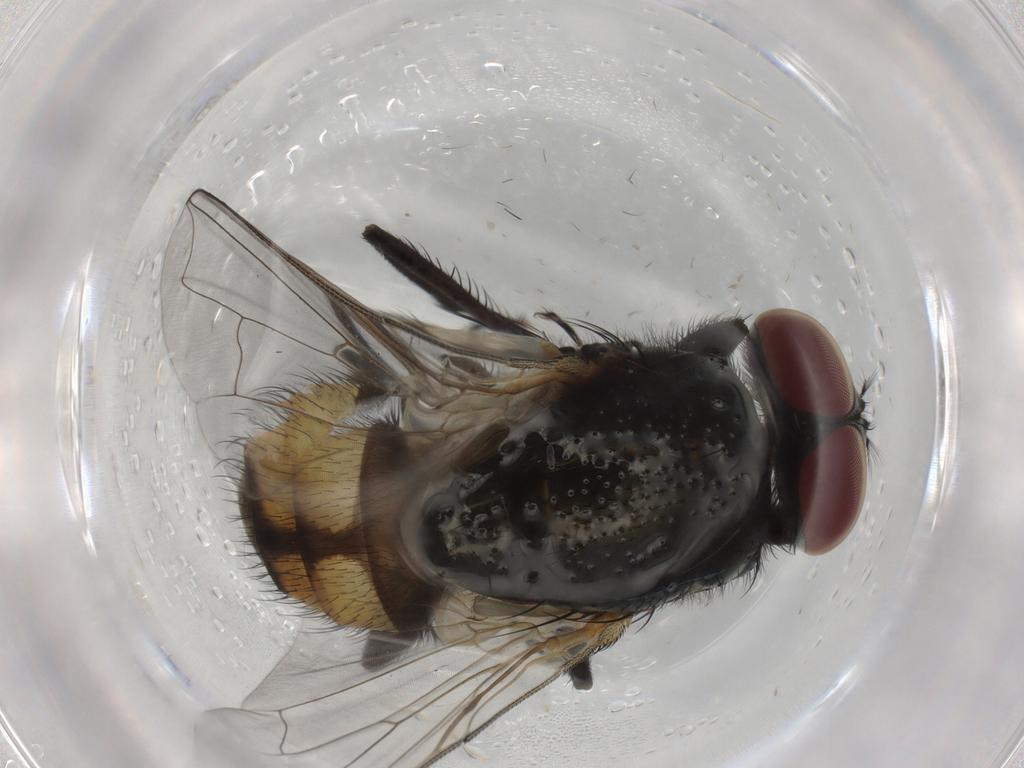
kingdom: Animalia
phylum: Arthropoda
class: Insecta
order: Diptera
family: Cecidomyiidae
